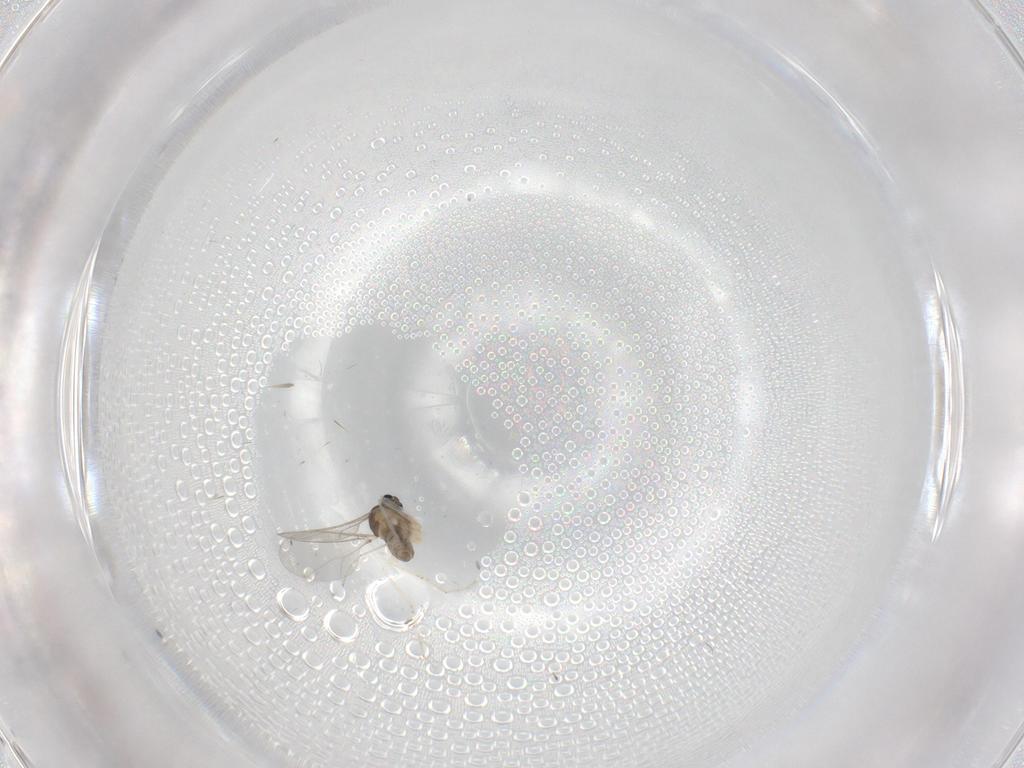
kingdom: Animalia
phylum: Arthropoda
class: Insecta
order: Diptera
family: Cecidomyiidae
